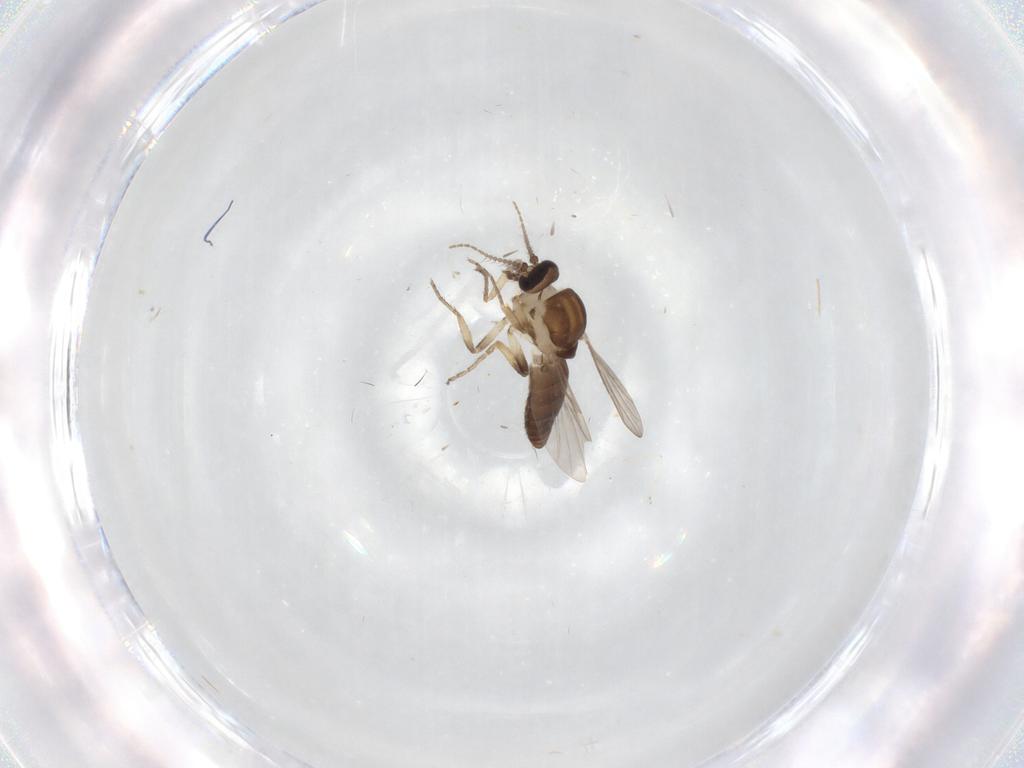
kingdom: Animalia
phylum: Arthropoda
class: Insecta
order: Diptera
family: Ceratopogonidae
